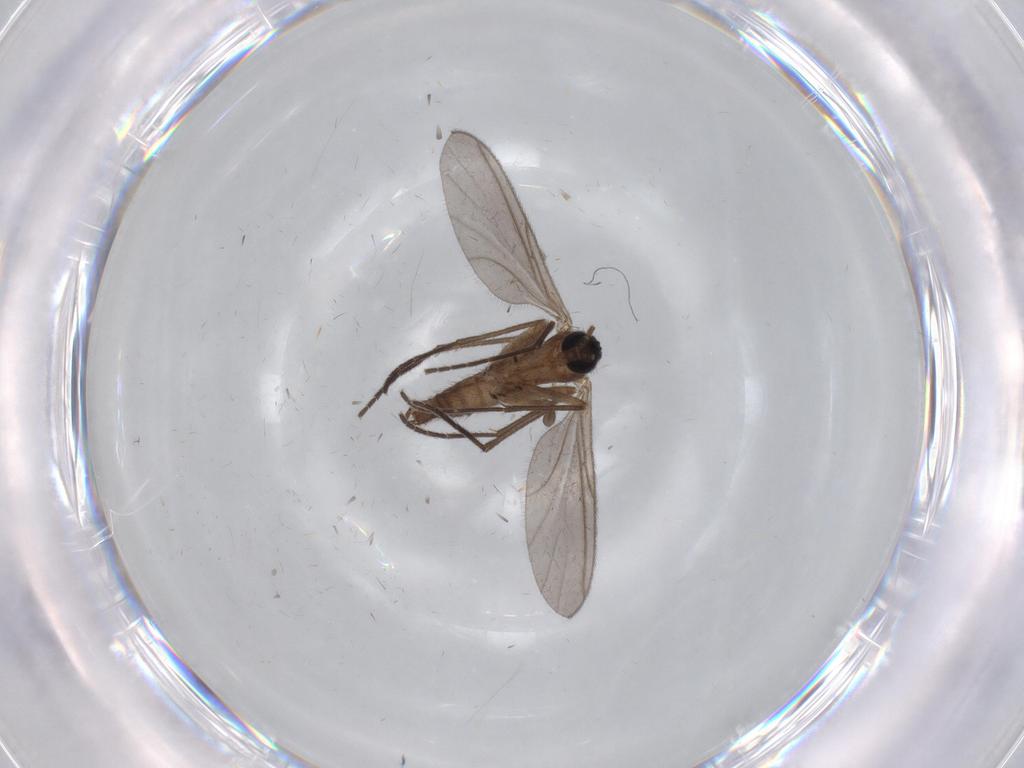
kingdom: Animalia
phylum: Arthropoda
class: Insecta
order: Diptera
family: Sciaridae
